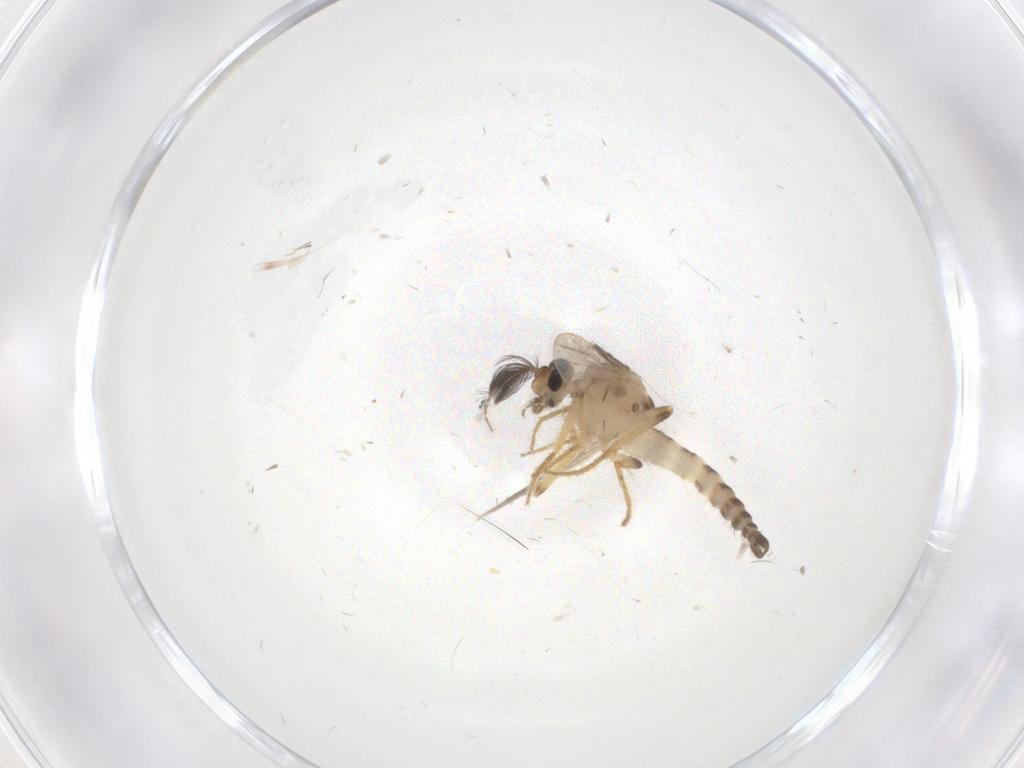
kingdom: Animalia
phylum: Arthropoda
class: Insecta
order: Diptera
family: Ceratopogonidae
